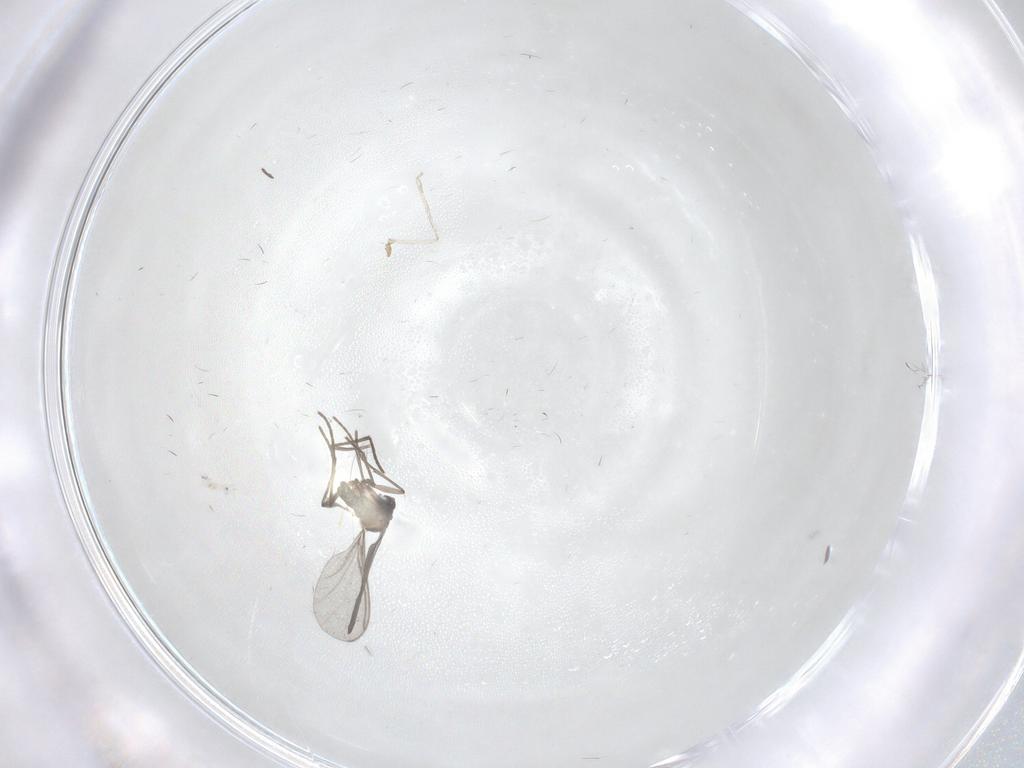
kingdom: Animalia
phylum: Arthropoda
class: Insecta
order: Diptera
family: Sciaridae
